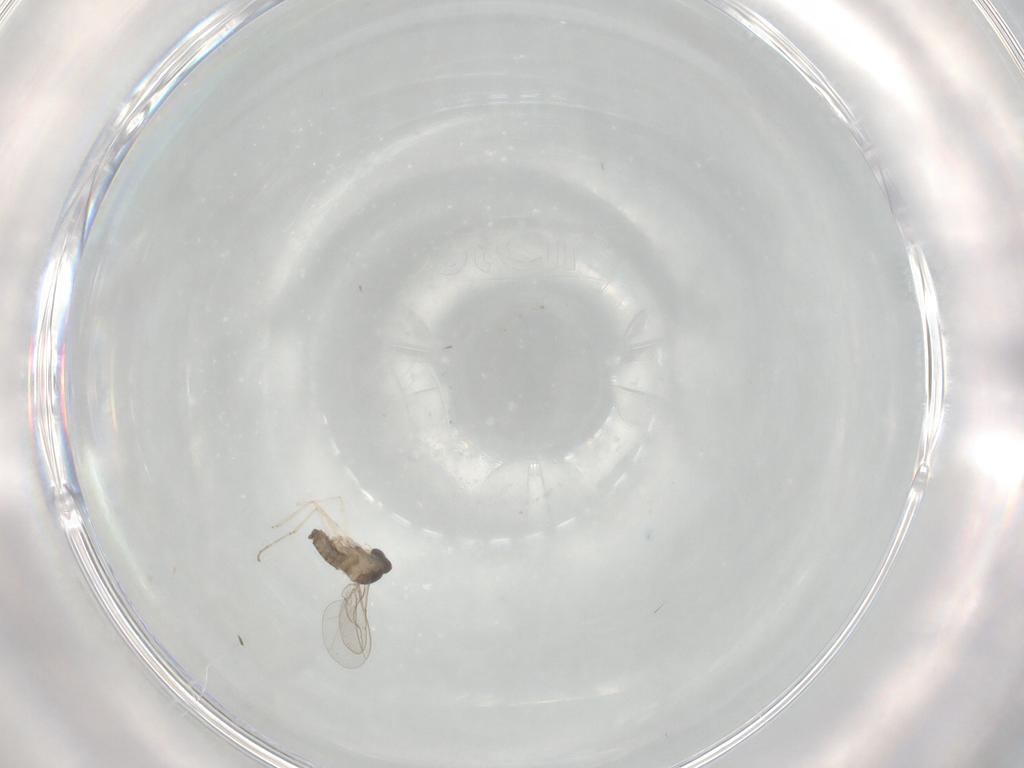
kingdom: Animalia
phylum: Arthropoda
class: Insecta
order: Diptera
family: Cecidomyiidae
